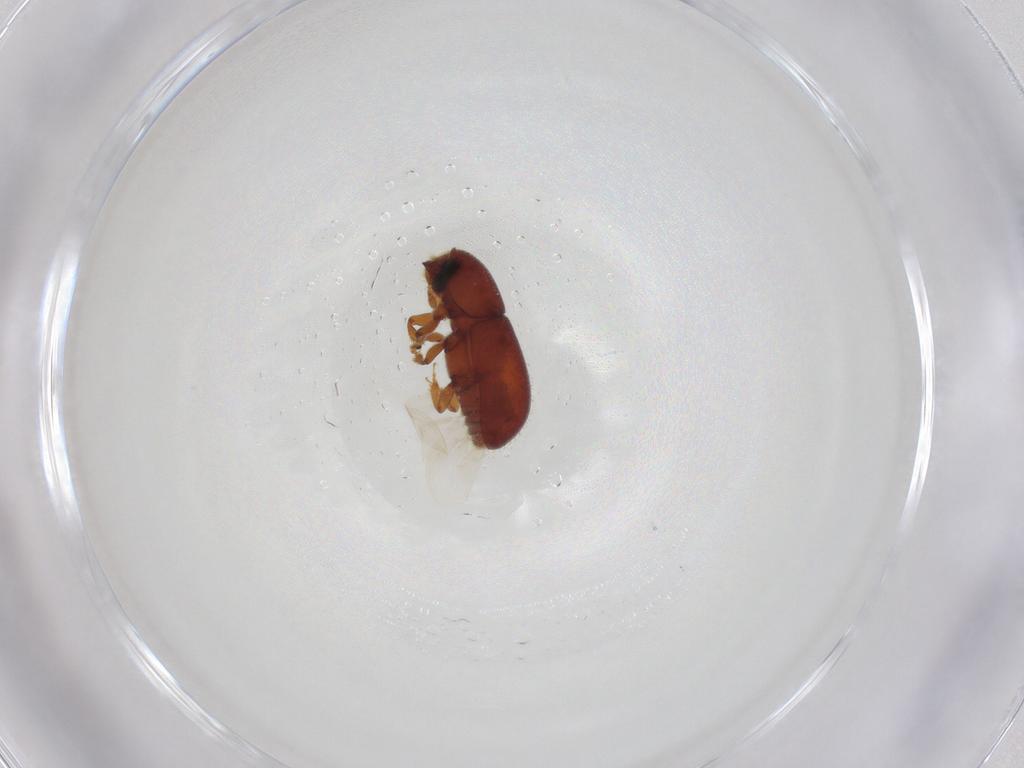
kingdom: Animalia
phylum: Arthropoda
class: Insecta
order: Coleoptera
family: Curculionidae
